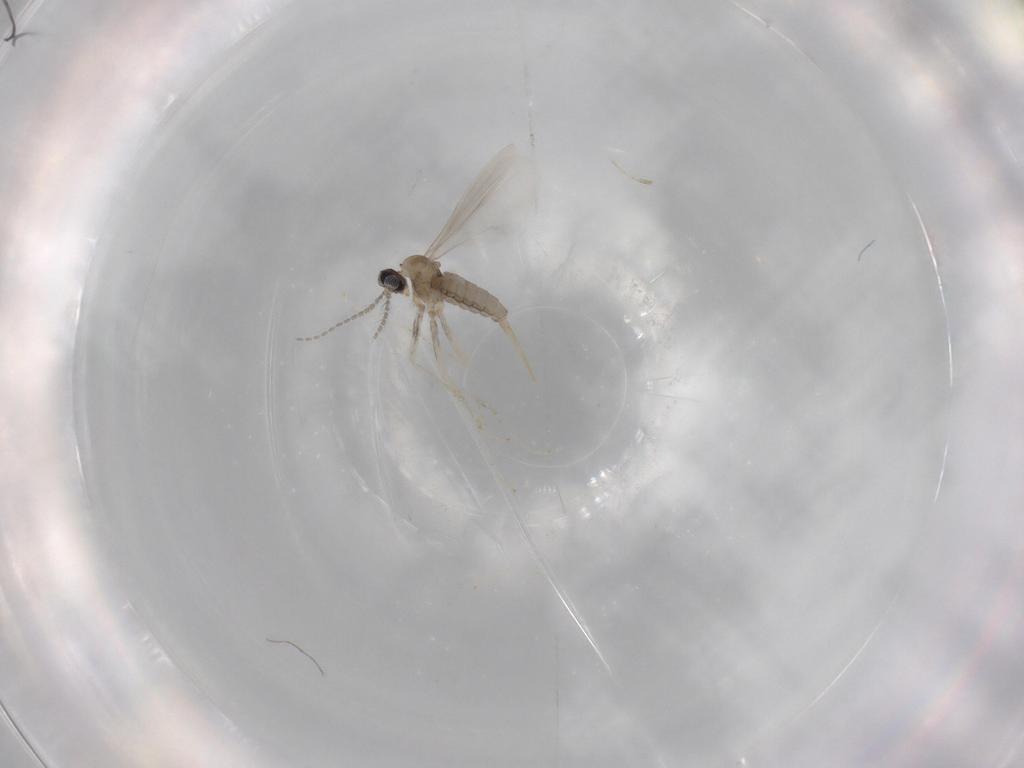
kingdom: Animalia
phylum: Arthropoda
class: Insecta
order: Diptera
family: Cecidomyiidae
